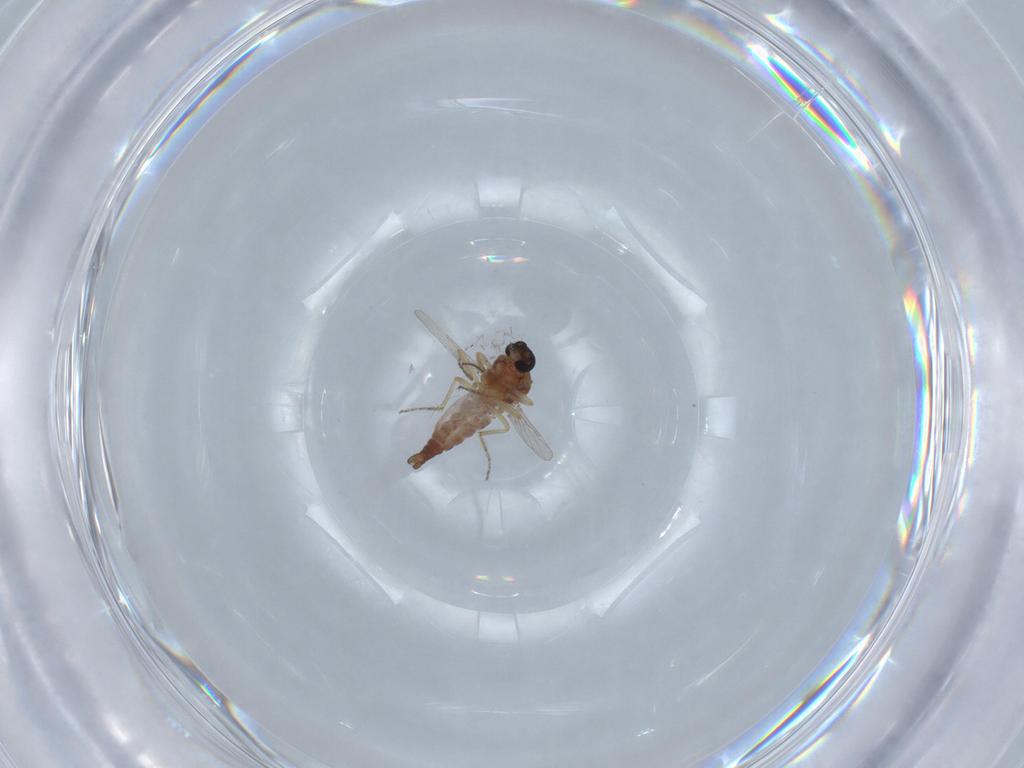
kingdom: Animalia
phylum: Arthropoda
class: Insecta
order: Diptera
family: Ceratopogonidae
